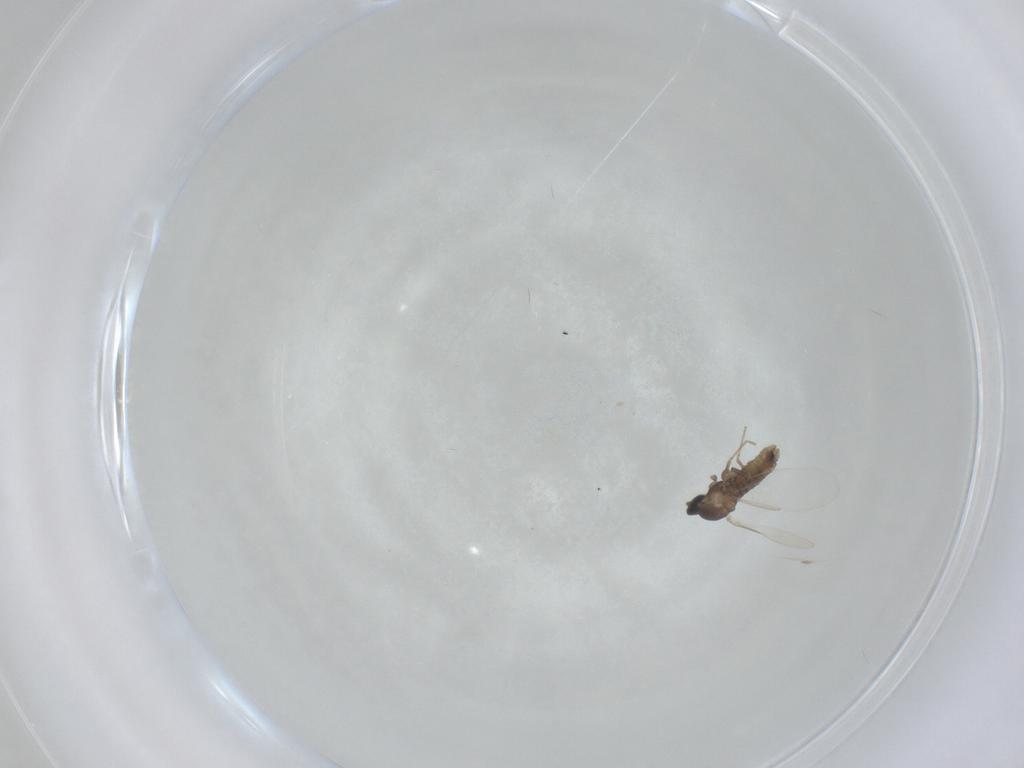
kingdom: Animalia
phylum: Arthropoda
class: Insecta
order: Diptera
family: Cecidomyiidae
